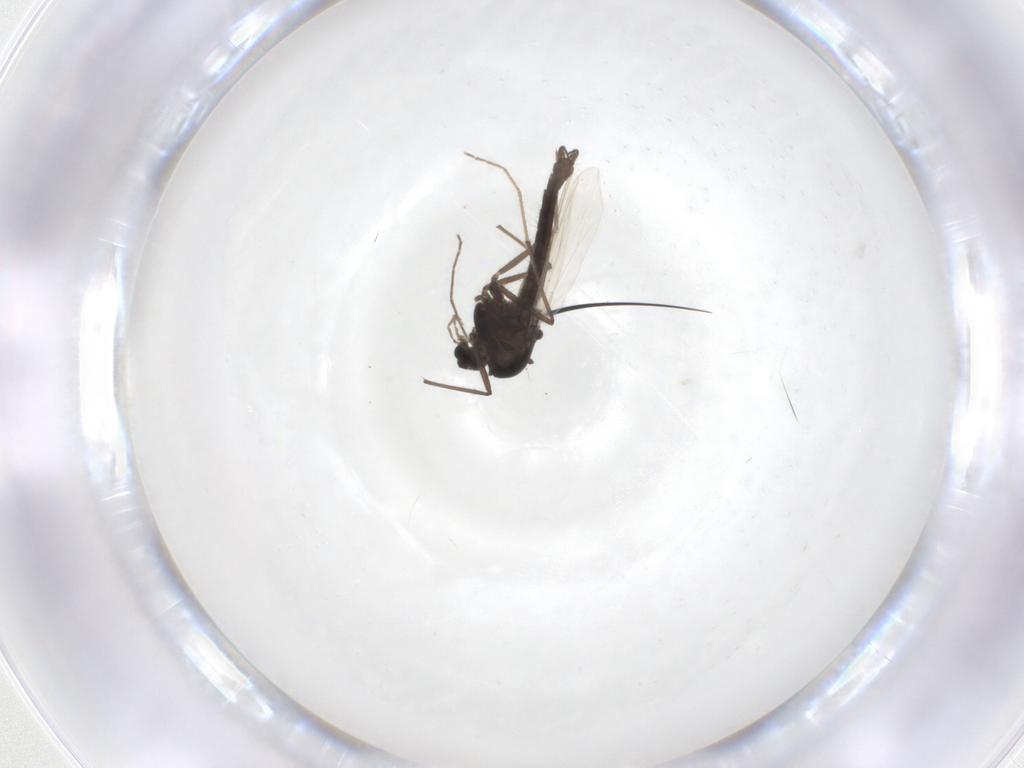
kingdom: Animalia
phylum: Arthropoda
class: Insecta
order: Diptera
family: Chironomidae
